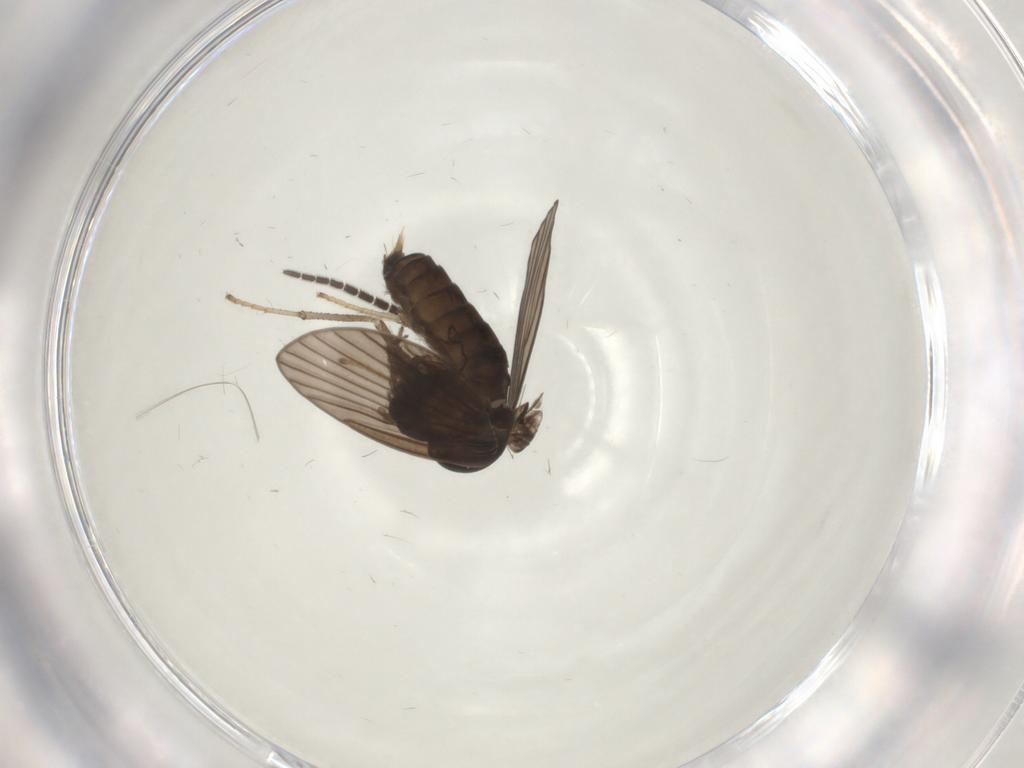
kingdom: Animalia
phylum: Arthropoda
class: Insecta
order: Diptera
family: Psychodidae
